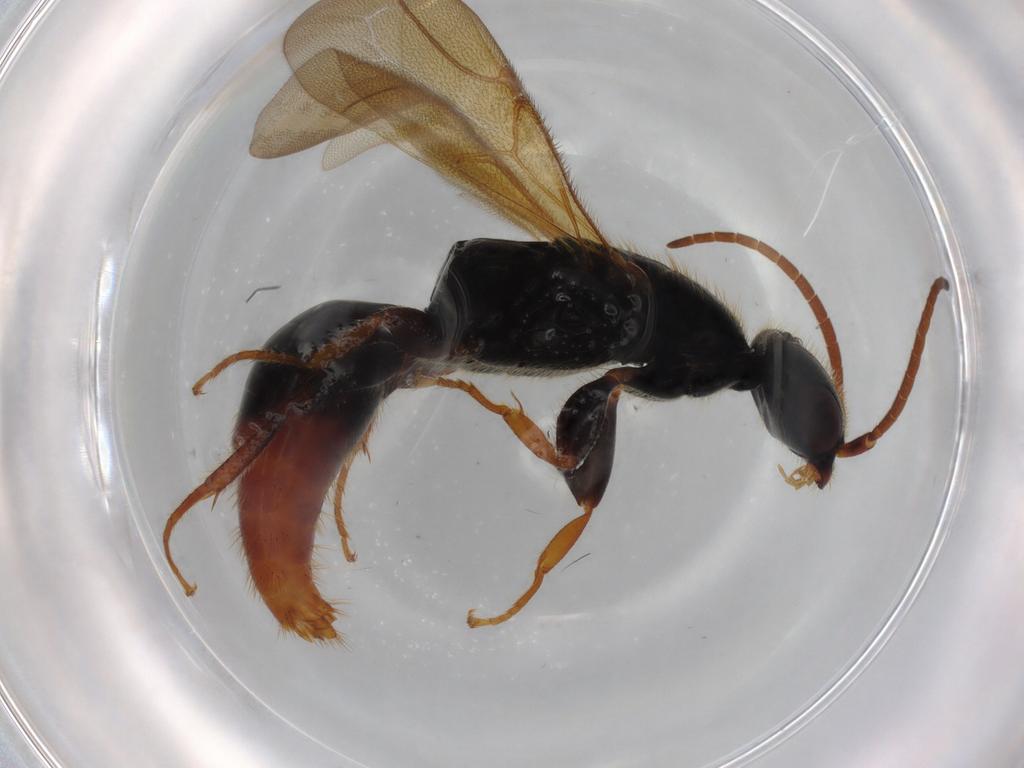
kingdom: Animalia
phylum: Arthropoda
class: Insecta
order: Hymenoptera
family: Bethylidae
